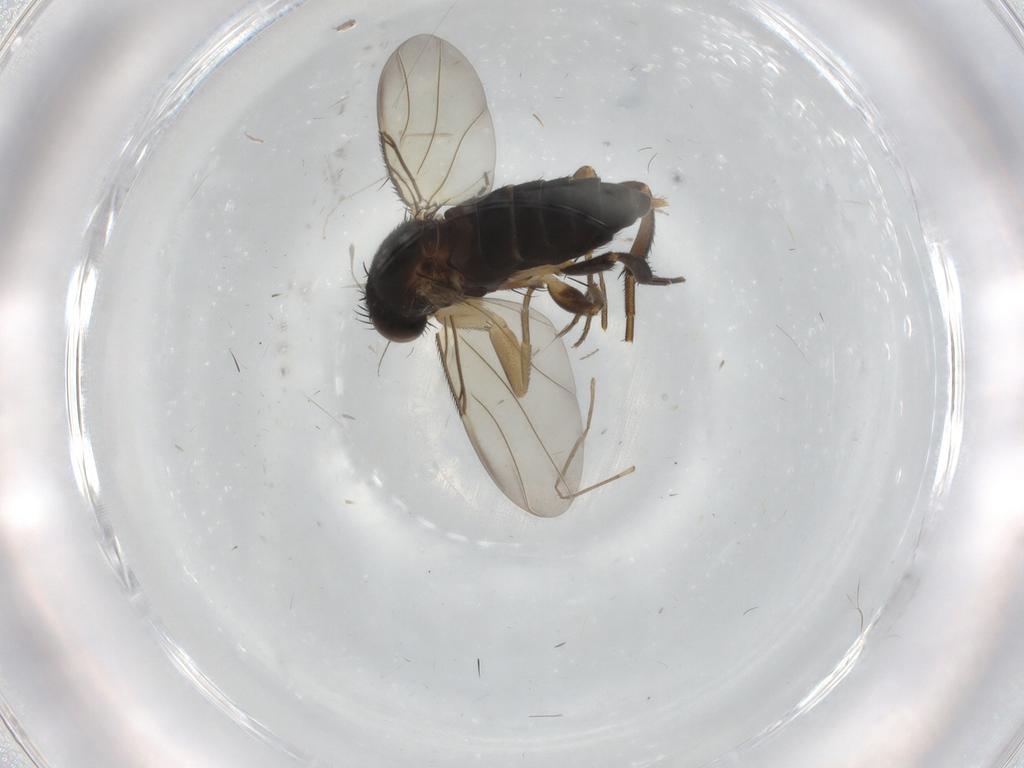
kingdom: Animalia
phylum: Arthropoda
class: Insecta
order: Diptera
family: Phoridae
